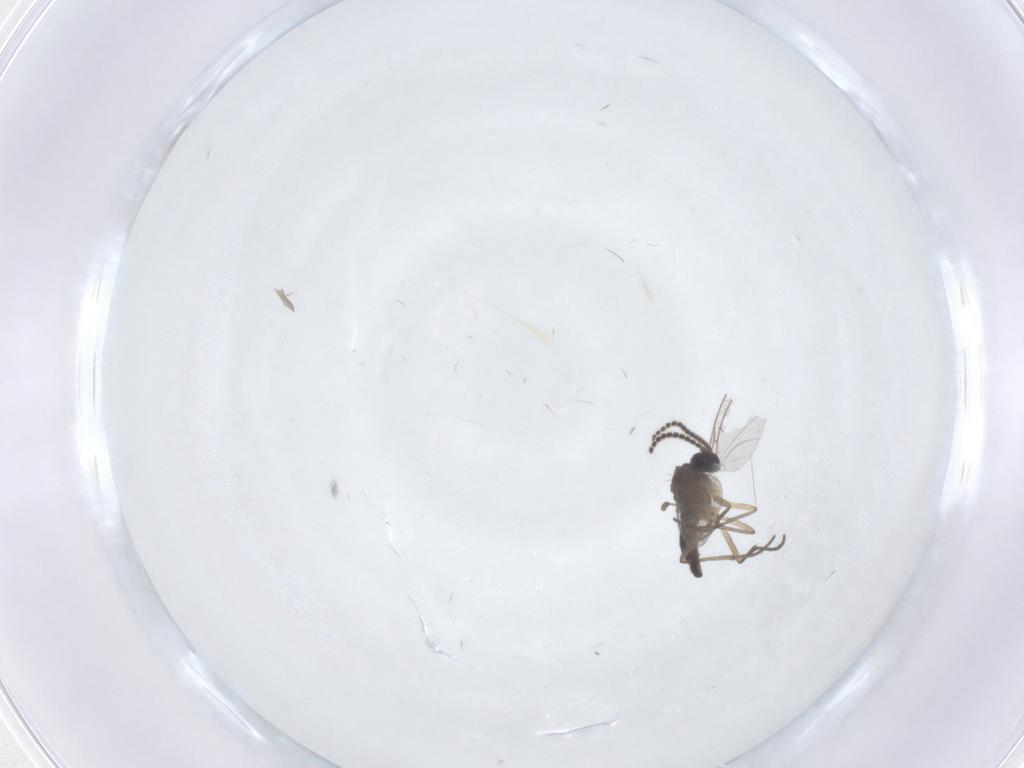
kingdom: Animalia
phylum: Arthropoda
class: Insecta
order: Diptera
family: Sciaridae
